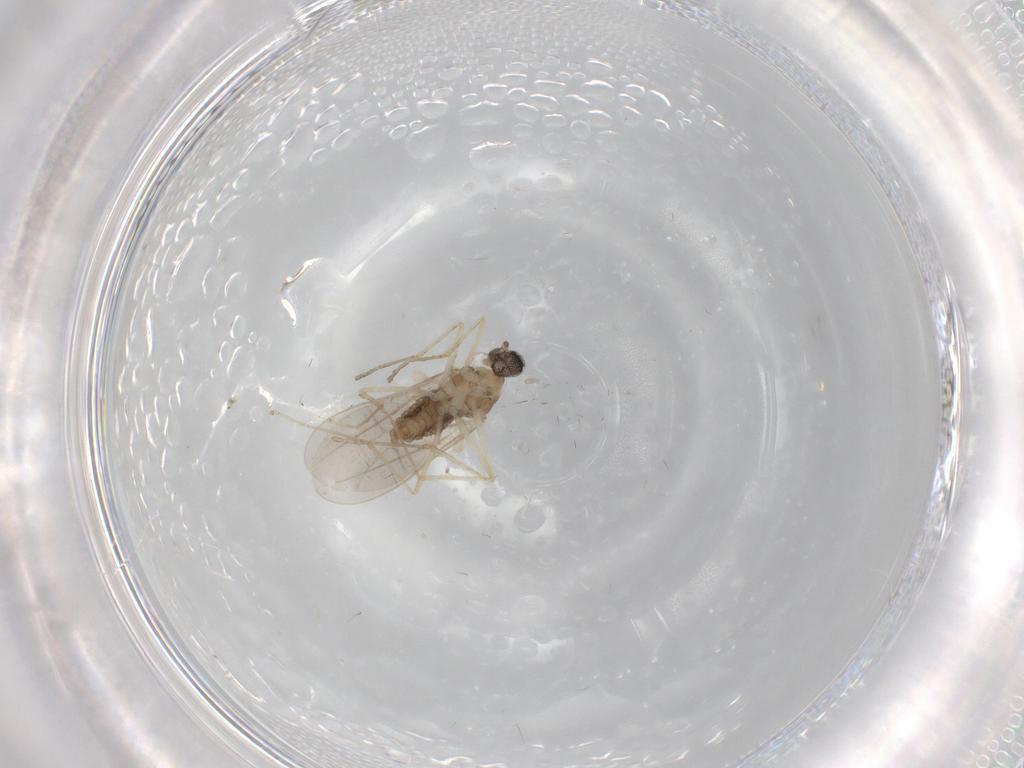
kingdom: Animalia
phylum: Arthropoda
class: Insecta
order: Diptera
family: Cecidomyiidae
